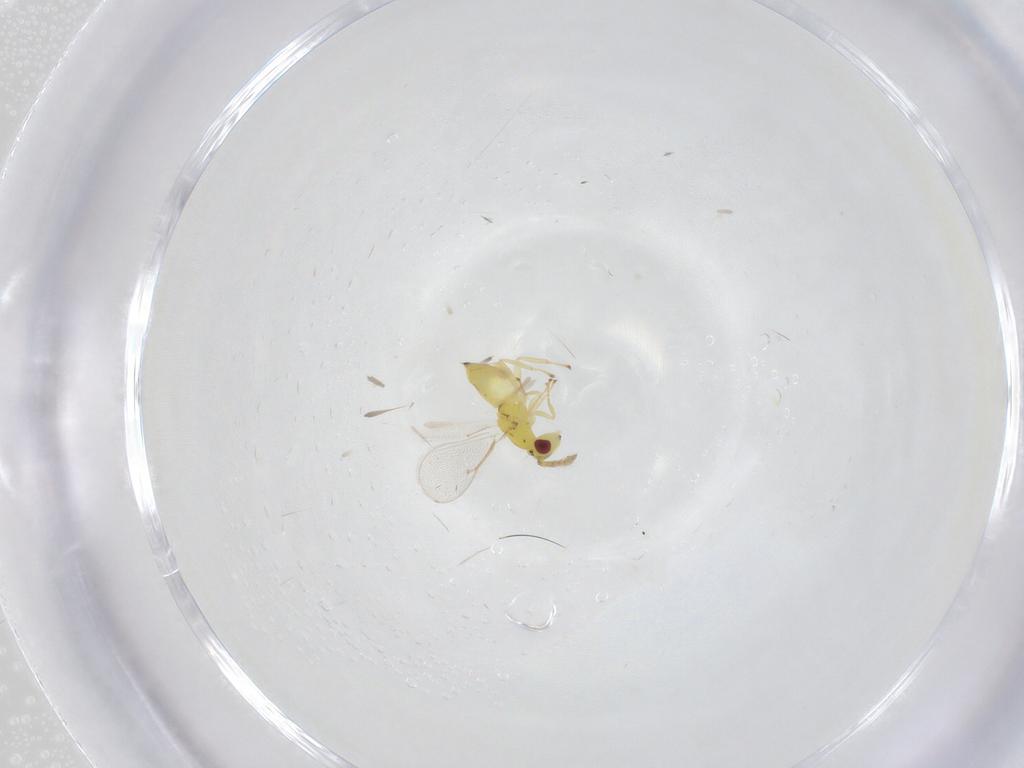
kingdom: Animalia
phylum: Arthropoda
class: Insecta
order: Hymenoptera
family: Eulophidae
